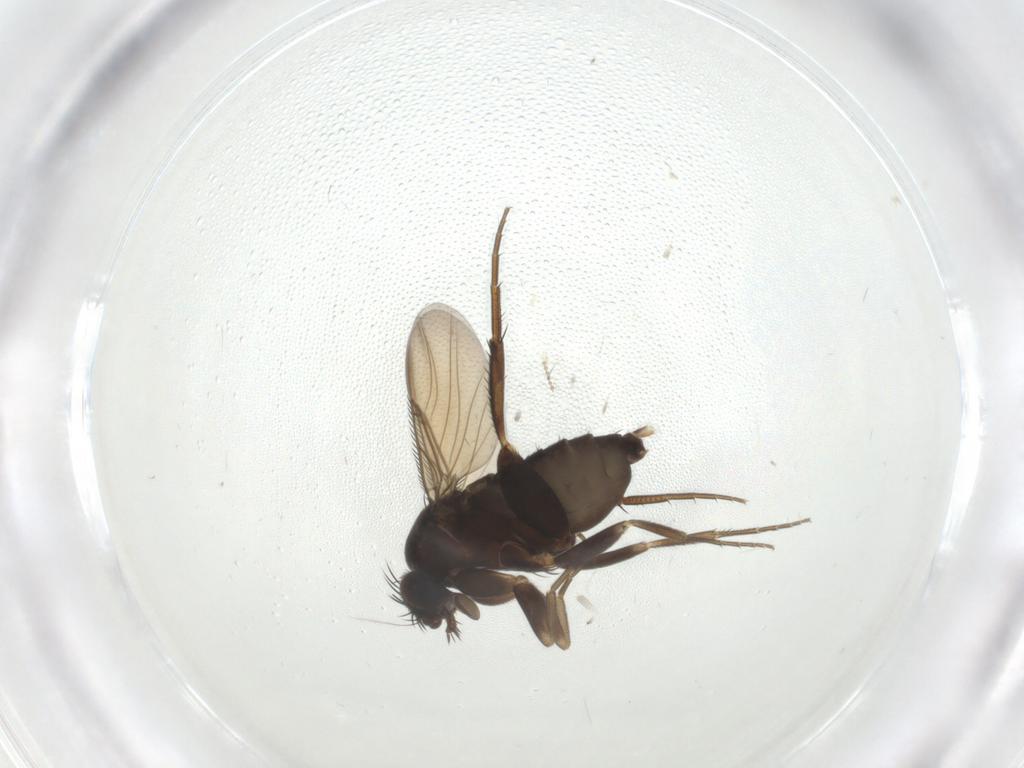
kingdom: Animalia
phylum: Arthropoda
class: Insecta
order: Diptera
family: Phoridae
